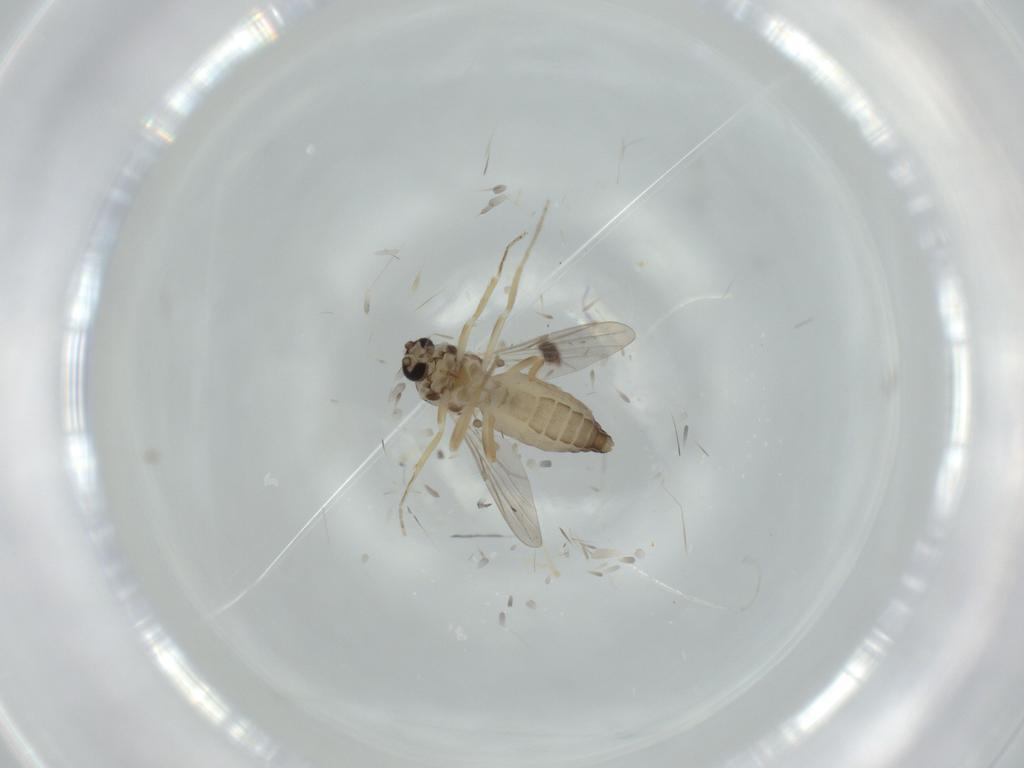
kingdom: Animalia
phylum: Arthropoda
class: Insecta
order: Diptera
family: Ceratopogonidae
